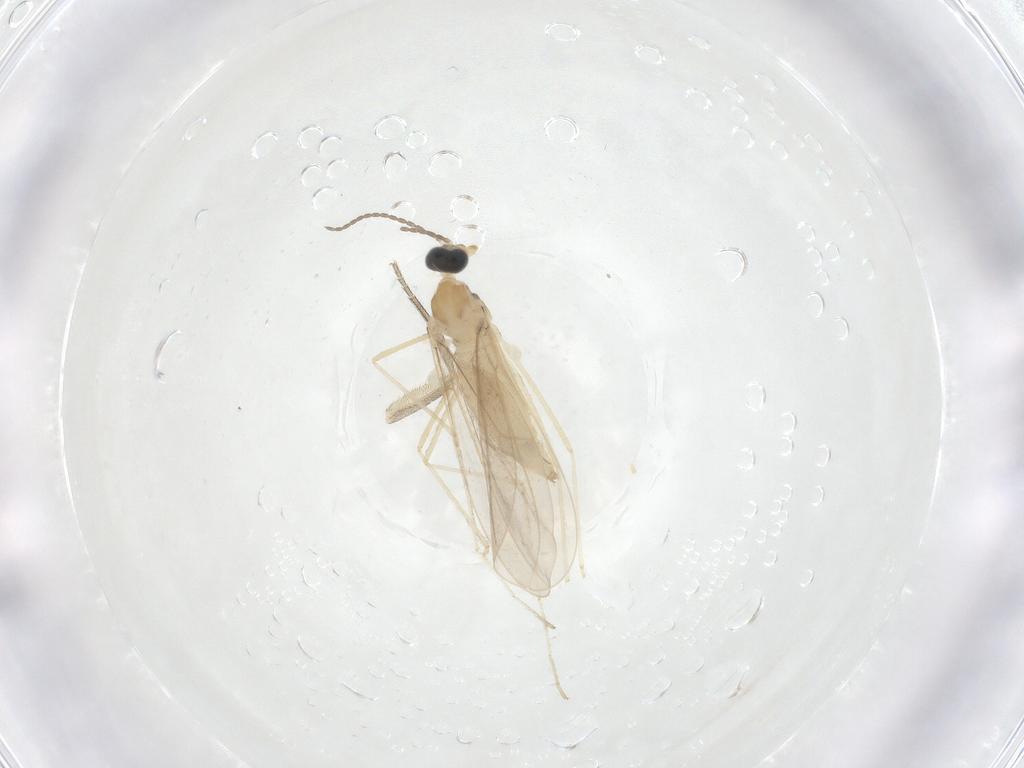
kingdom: Animalia
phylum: Arthropoda
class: Insecta
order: Diptera
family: Phoridae
